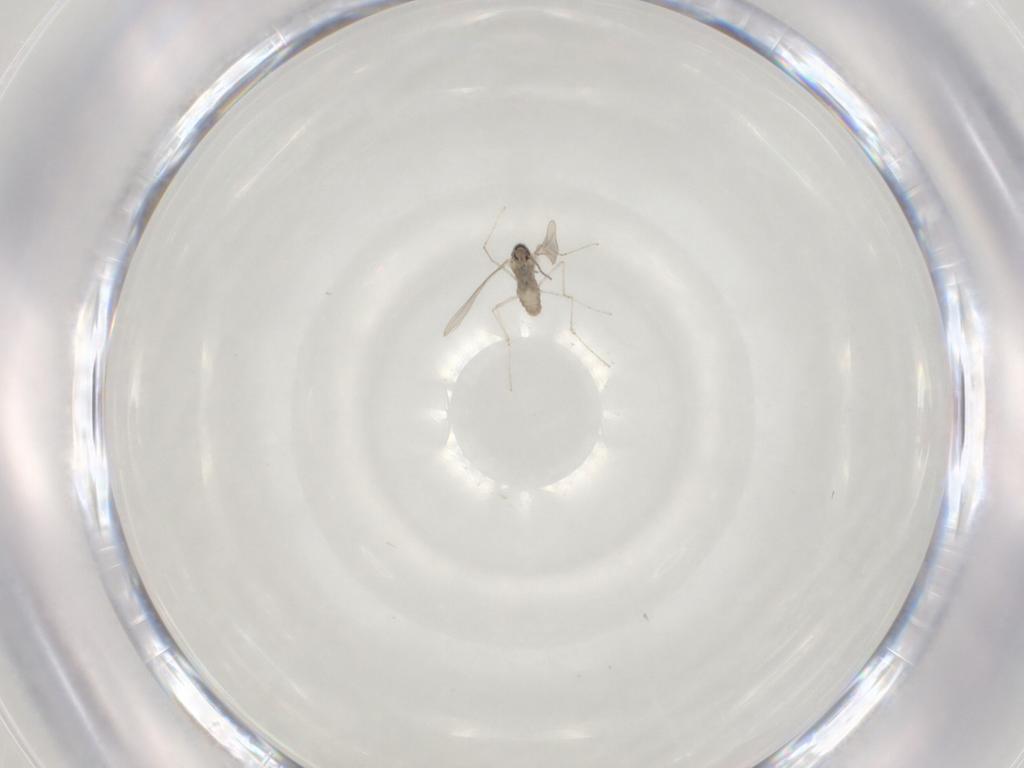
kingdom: Animalia
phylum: Arthropoda
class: Insecta
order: Diptera
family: Cecidomyiidae
